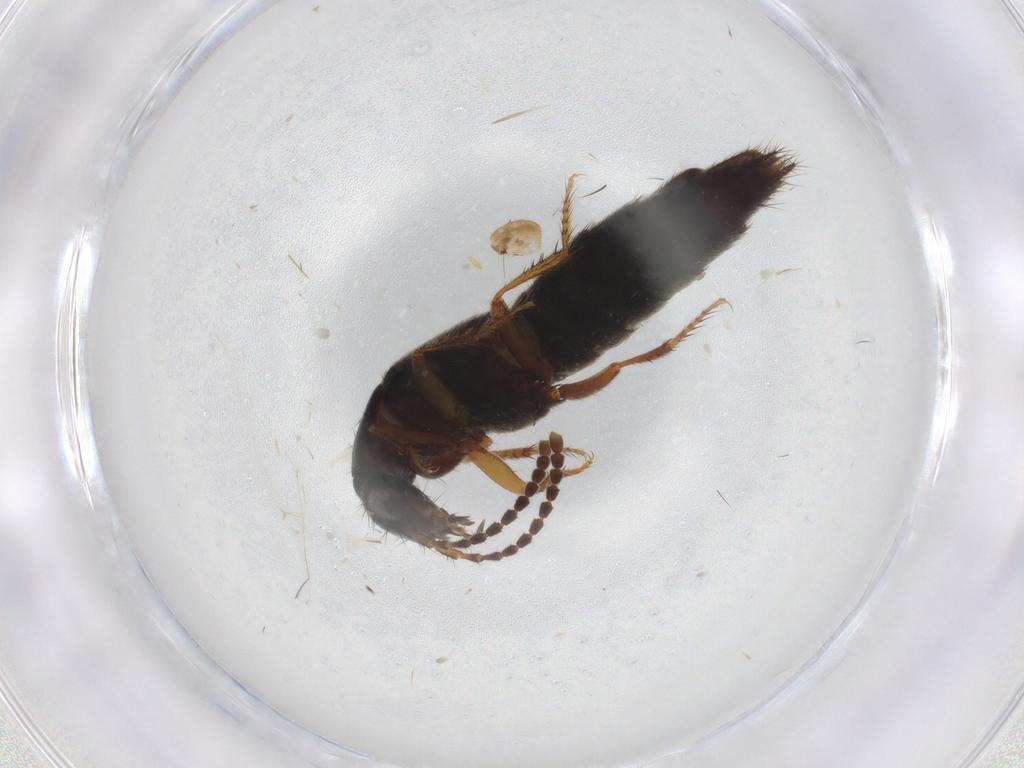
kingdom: Animalia
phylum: Arthropoda
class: Insecta
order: Coleoptera
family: Staphylinidae
